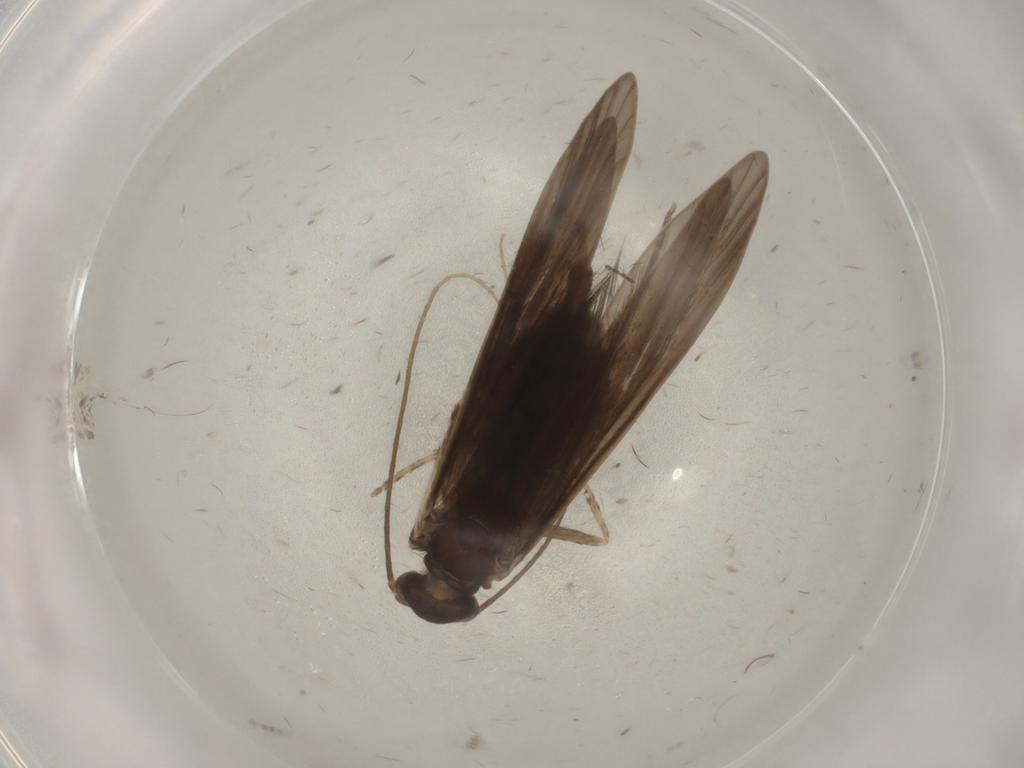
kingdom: Animalia
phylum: Arthropoda
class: Insecta
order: Trichoptera
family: Xiphocentronidae
